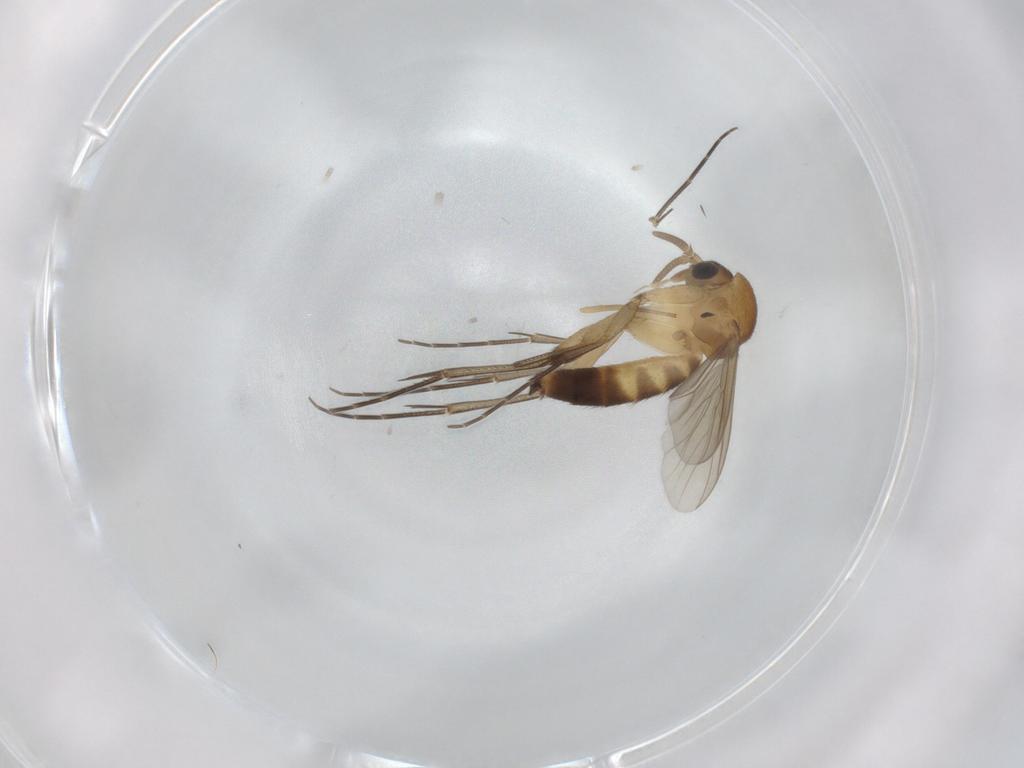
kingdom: Animalia
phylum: Arthropoda
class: Insecta
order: Diptera
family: Mycetophilidae
